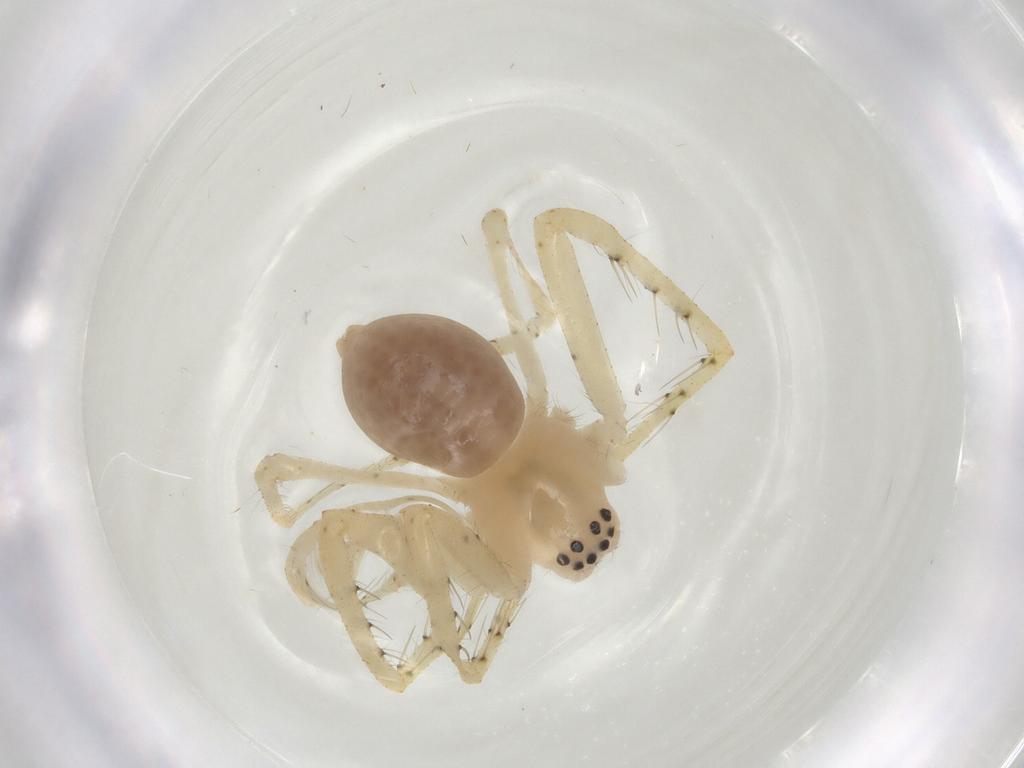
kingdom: Animalia
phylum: Arthropoda
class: Arachnida
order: Araneae
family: Sparassidae
